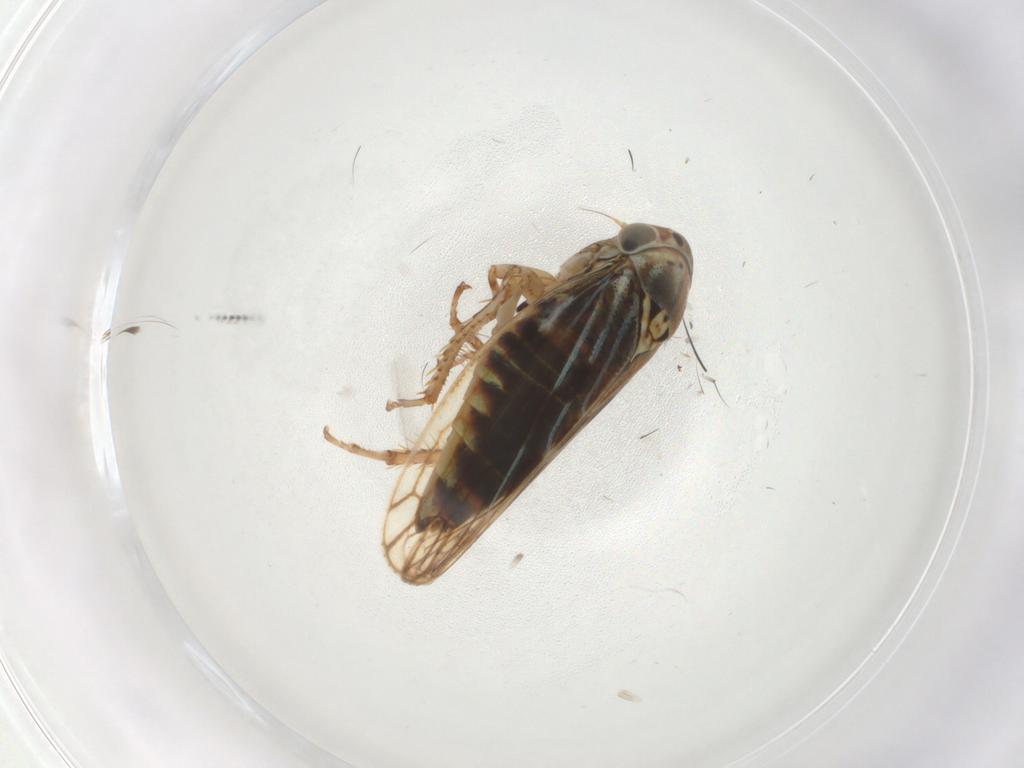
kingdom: Animalia
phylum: Arthropoda
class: Insecta
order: Hemiptera
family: Cicadellidae
